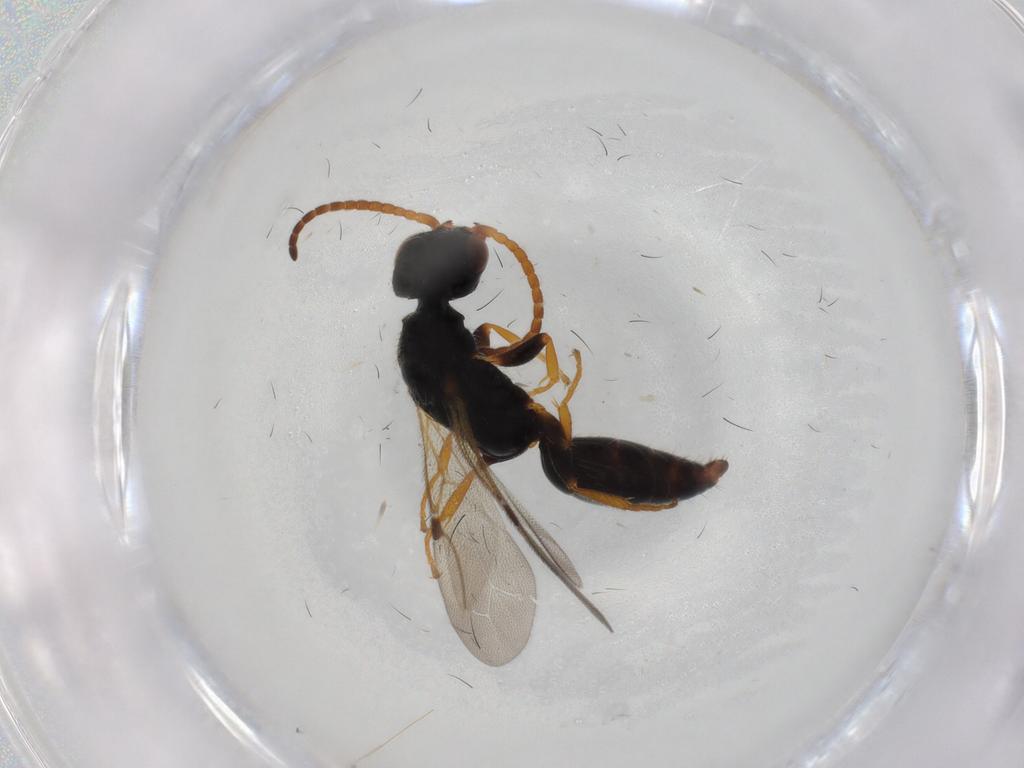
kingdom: Animalia
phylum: Arthropoda
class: Insecta
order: Hymenoptera
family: Bethylidae
